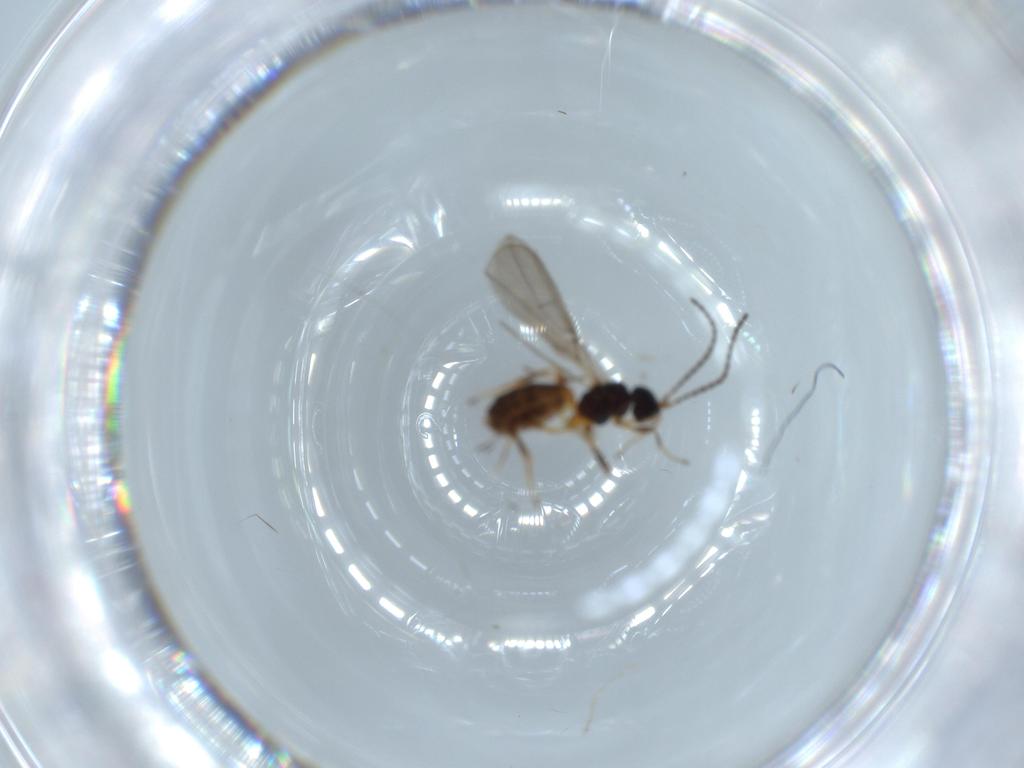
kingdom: Animalia
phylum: Arthropoda
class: Insecta
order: Hymenoptera
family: Braconidae
